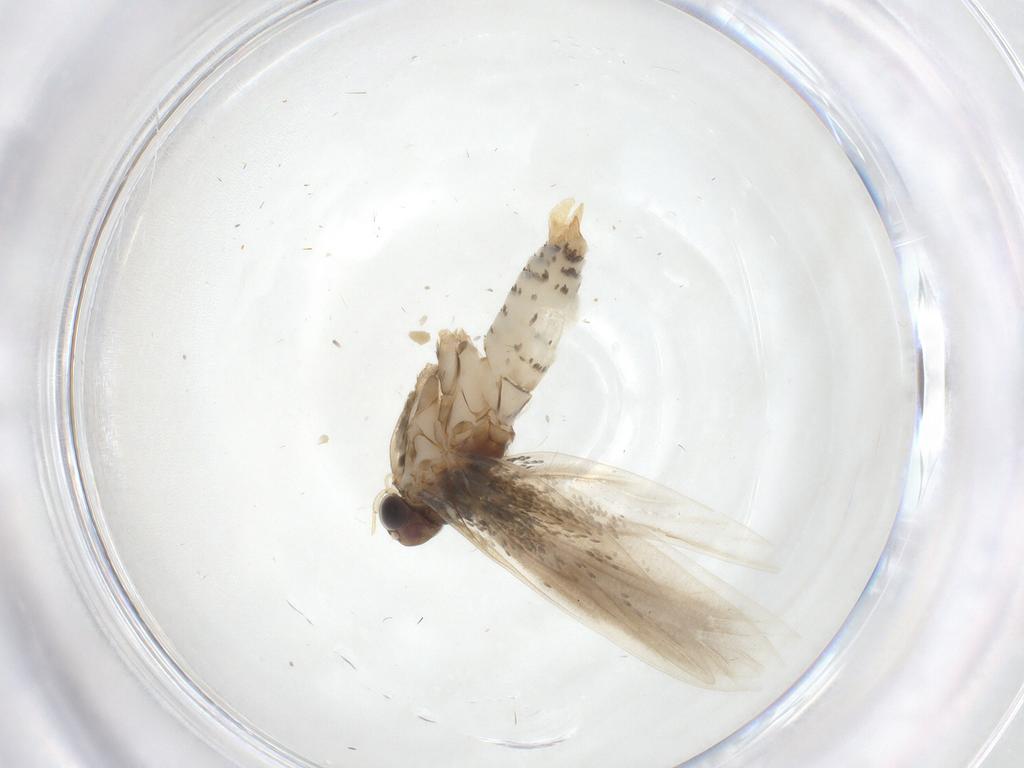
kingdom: Animalia
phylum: Arthropoda
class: Insecta
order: Lepidoptera
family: Tineidae
